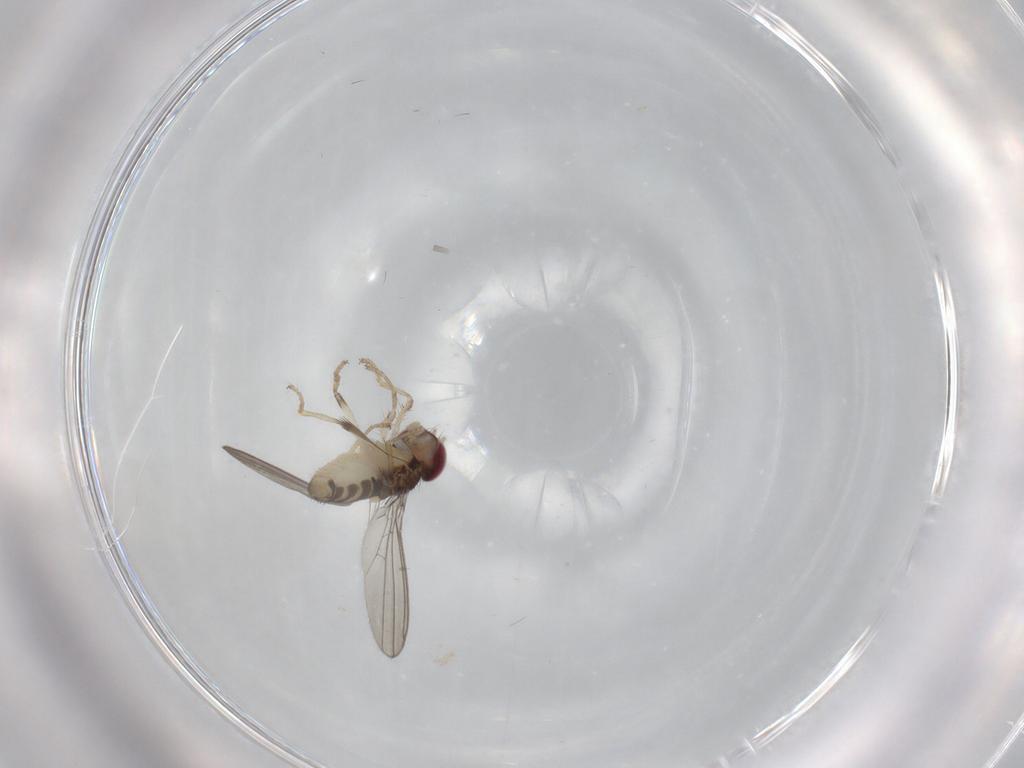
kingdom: Animalia
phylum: Arthropoda
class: Insecta
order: Diptera
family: Anthomyzidae
